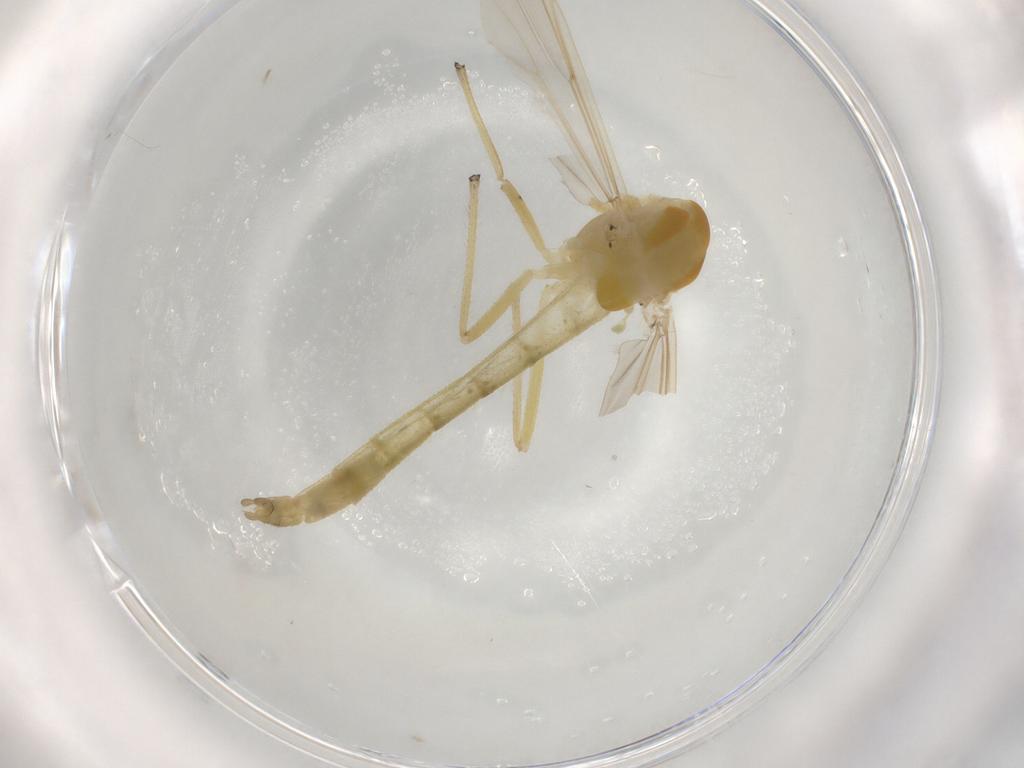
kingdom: Animalia
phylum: Arthropoda
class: Insecta
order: Diptera
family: Chironomidae
